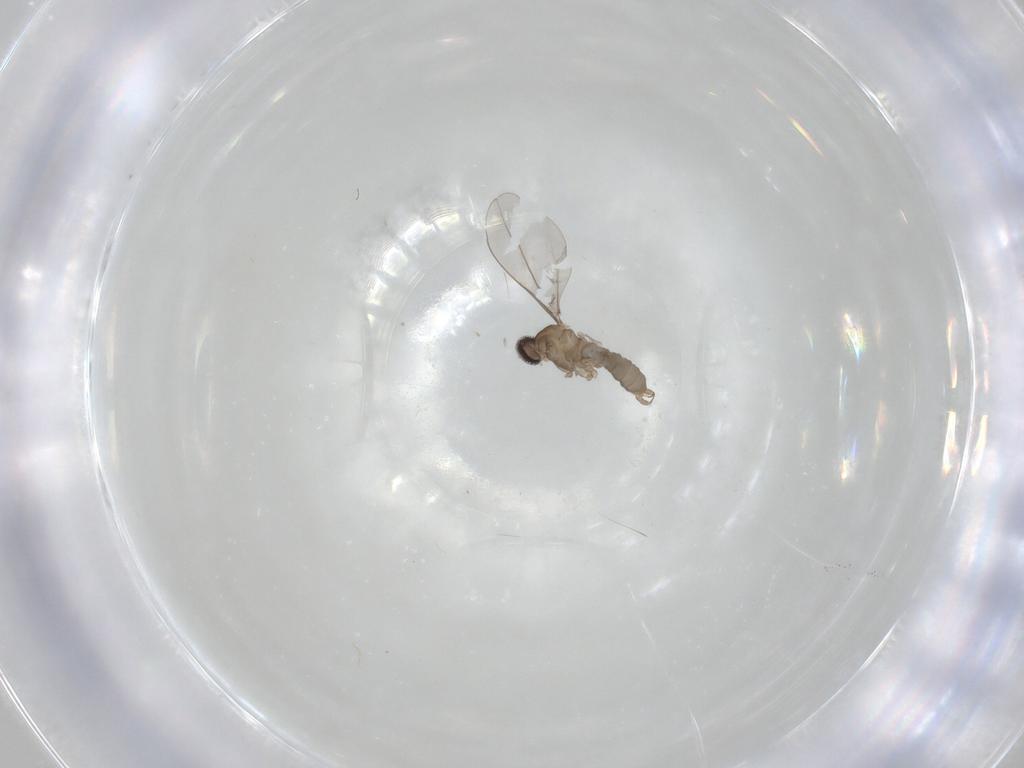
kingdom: Animalia
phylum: Arthropoda
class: Insecta
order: Diptera
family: Cecidomyiidae
